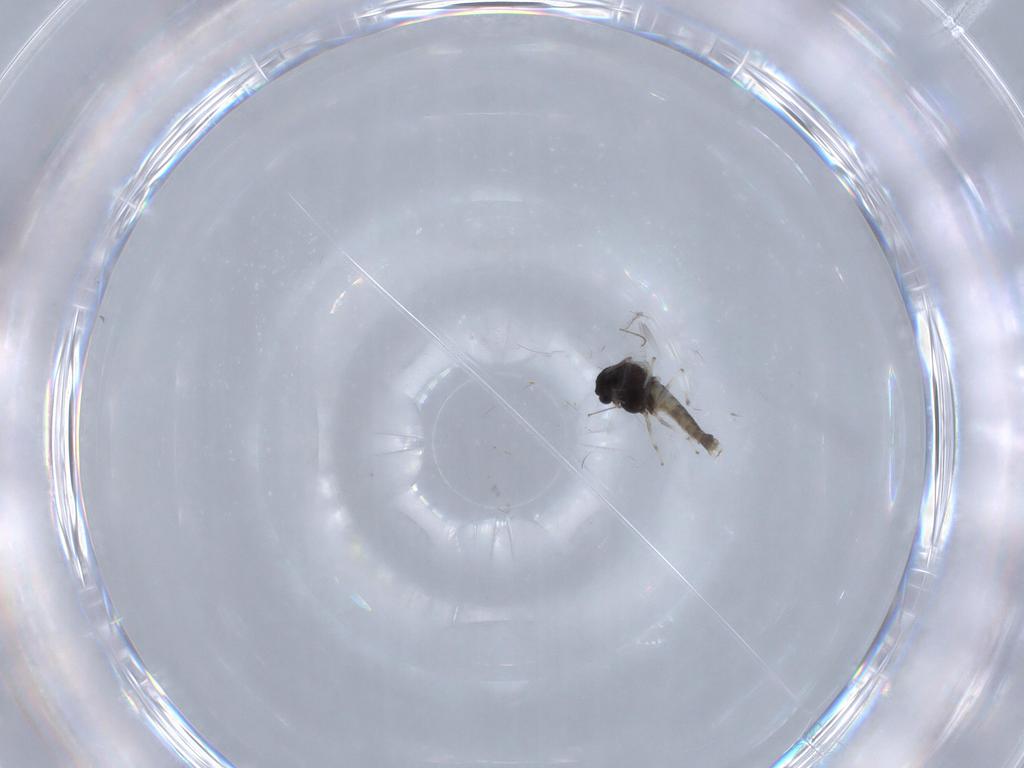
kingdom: Animalia
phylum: Arthropoda
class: Insecta
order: Diptera
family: Chironomidae
